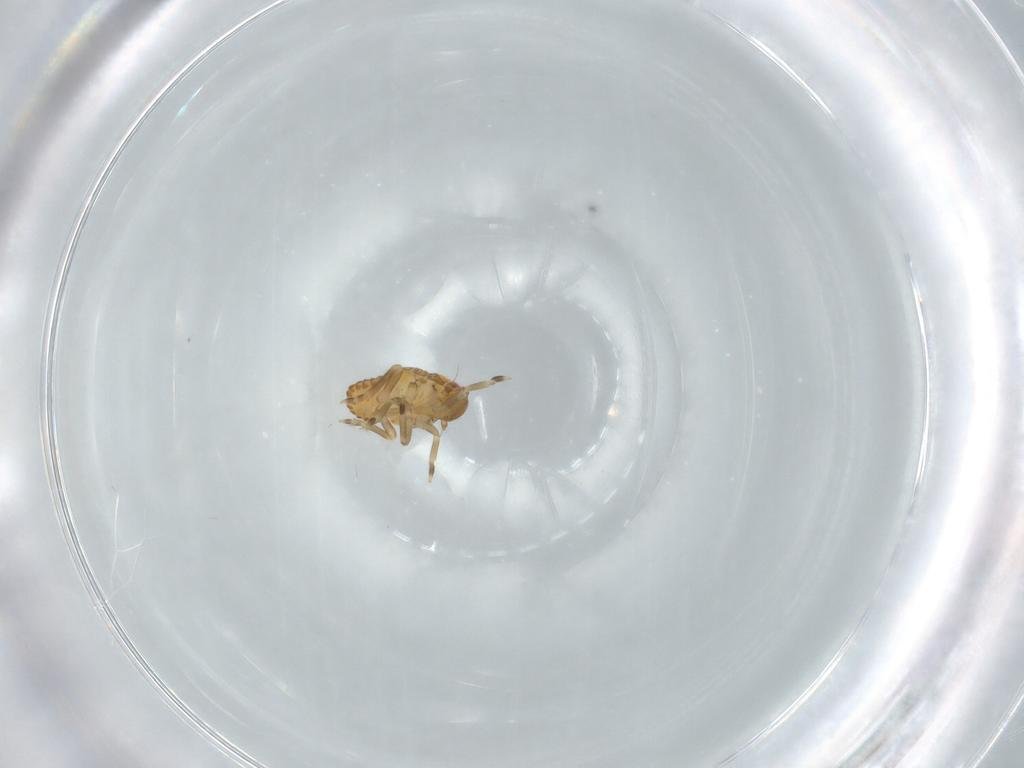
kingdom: Animalia
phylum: Arthropoda
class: Insecta
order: Hemiptera
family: Flatidae
